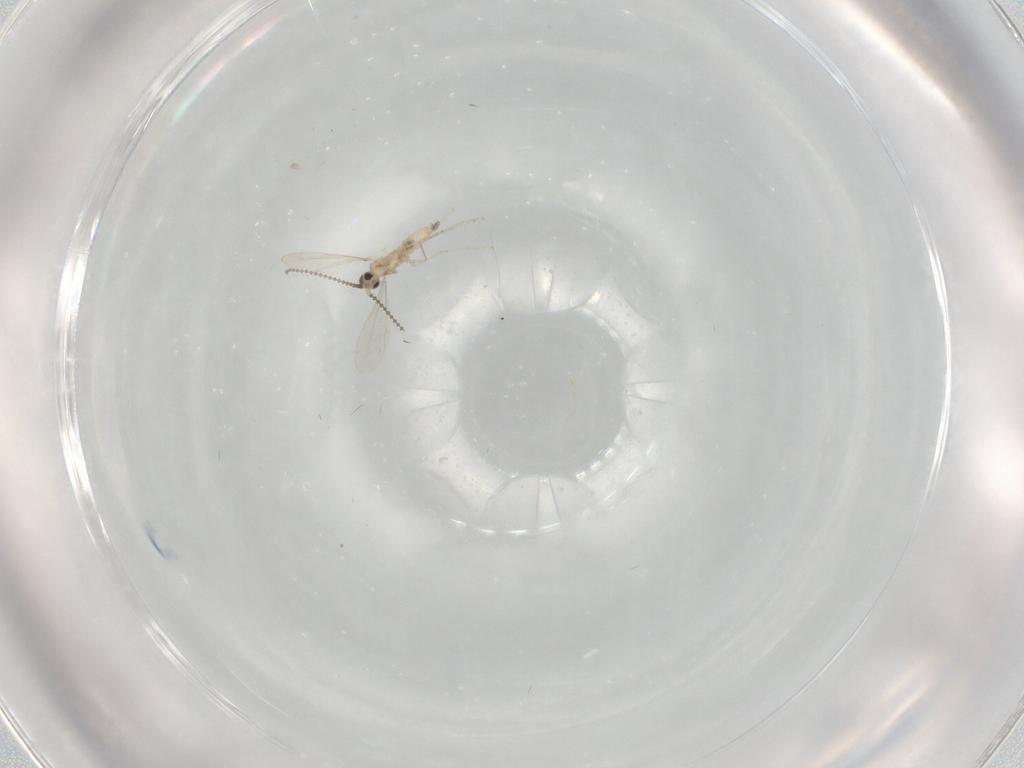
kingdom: Animalia
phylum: Arthropoda
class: Insecta
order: Diptera
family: Cecidomyiidae
